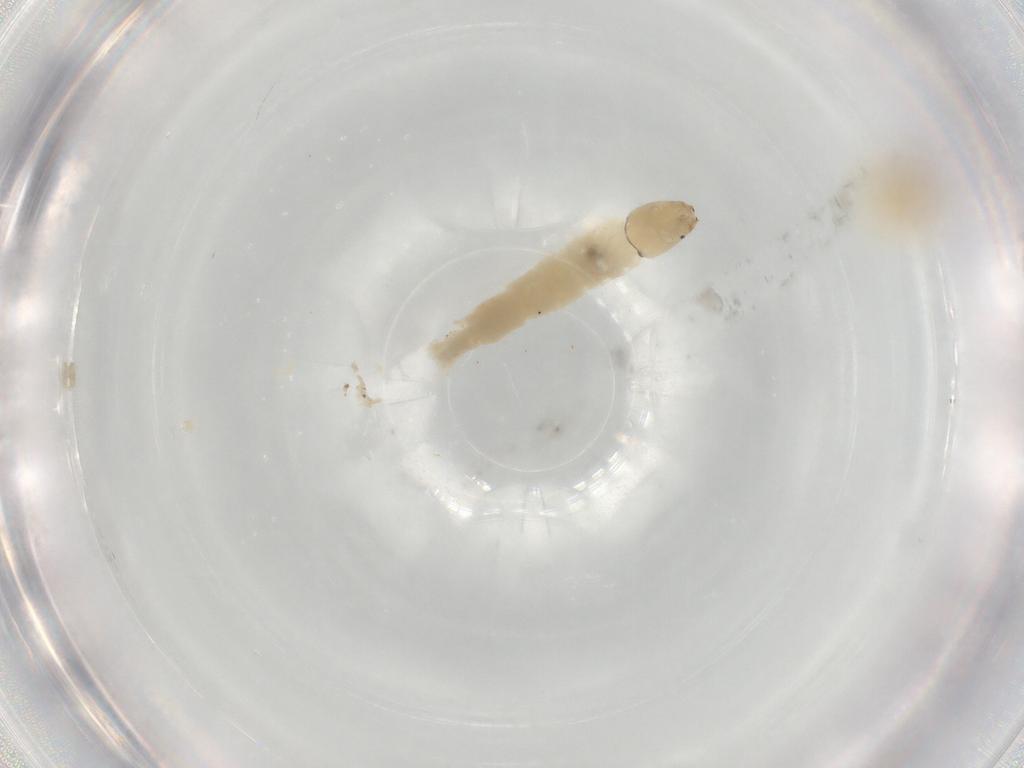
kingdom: Animalia
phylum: Arthropoda
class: Insecta
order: Diptera
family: Chironomidae
